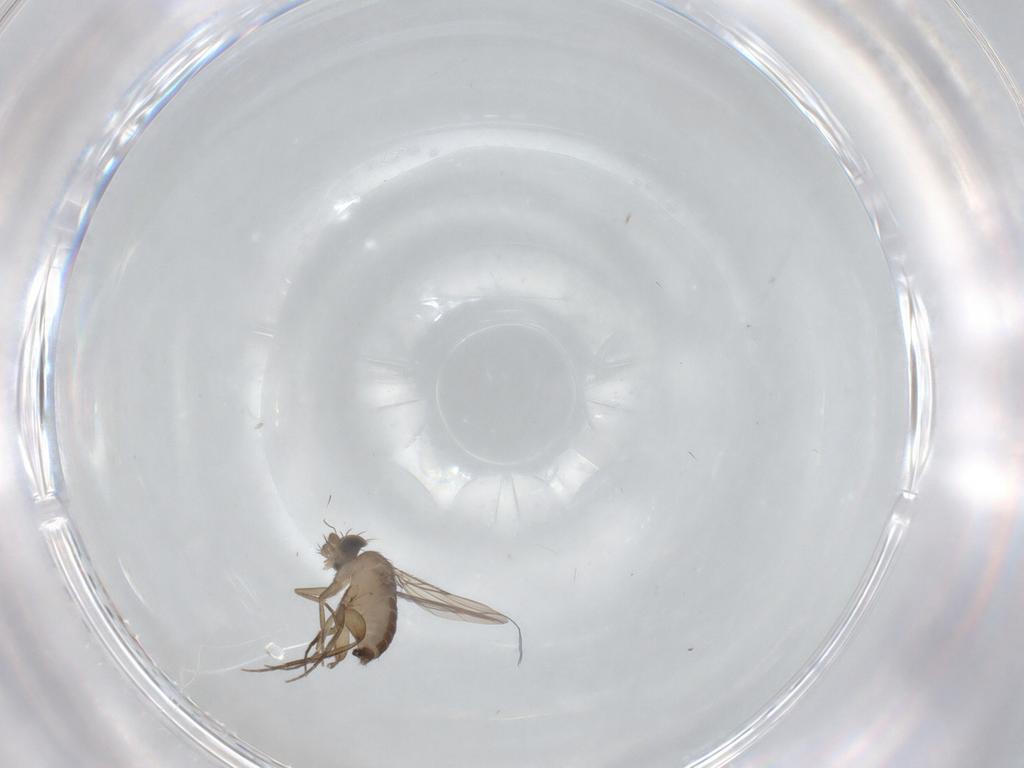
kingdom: Animalia
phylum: Arthropoda
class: Insecta
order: Diptera
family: Phoridae
